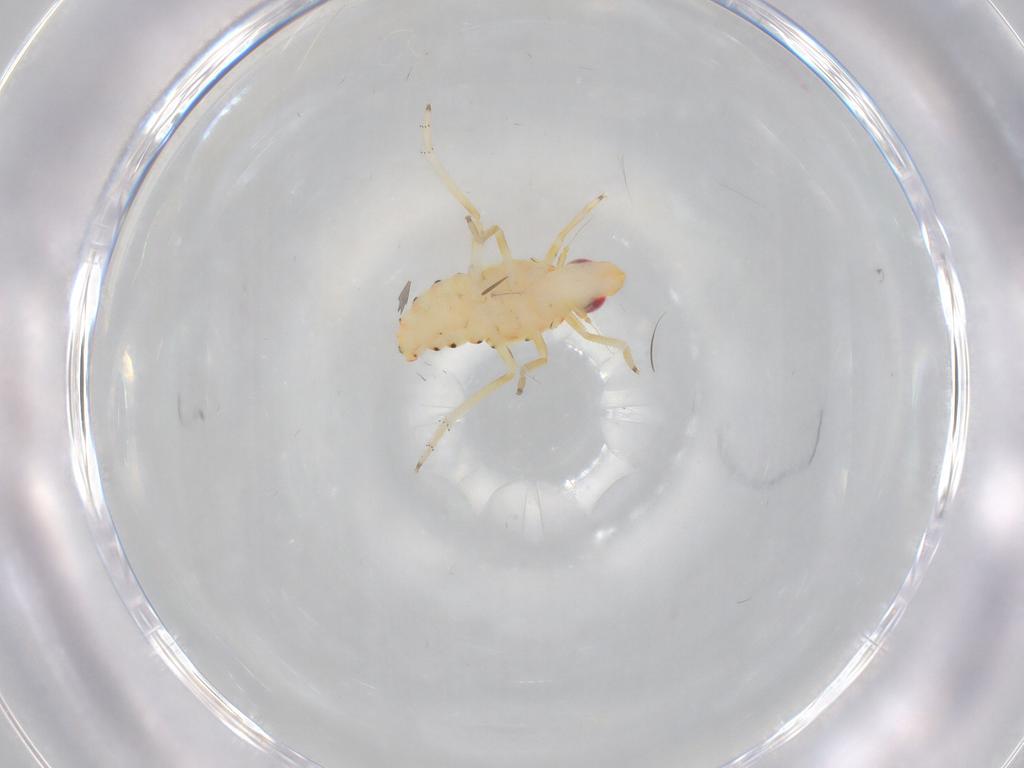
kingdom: Animalia
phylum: Arthropoda
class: Insecta
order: Hemiptera
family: Tropiduchidae
